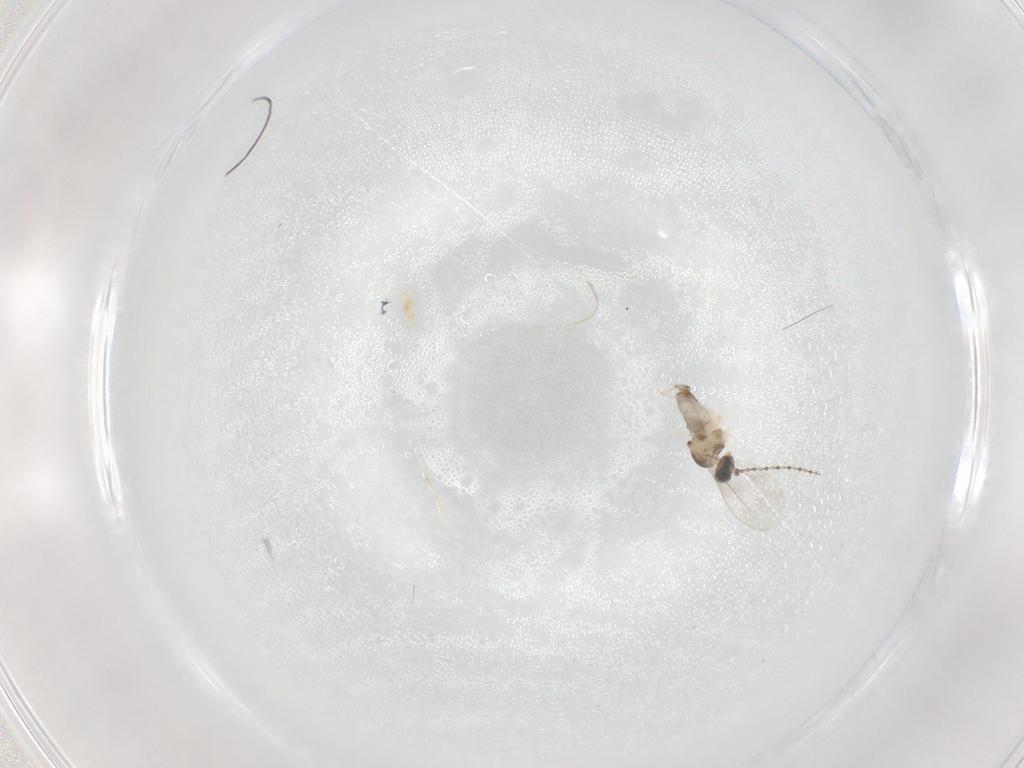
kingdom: Animalia
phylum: Arthropoda
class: Insecta
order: Diptera
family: Cecidomyiidae
